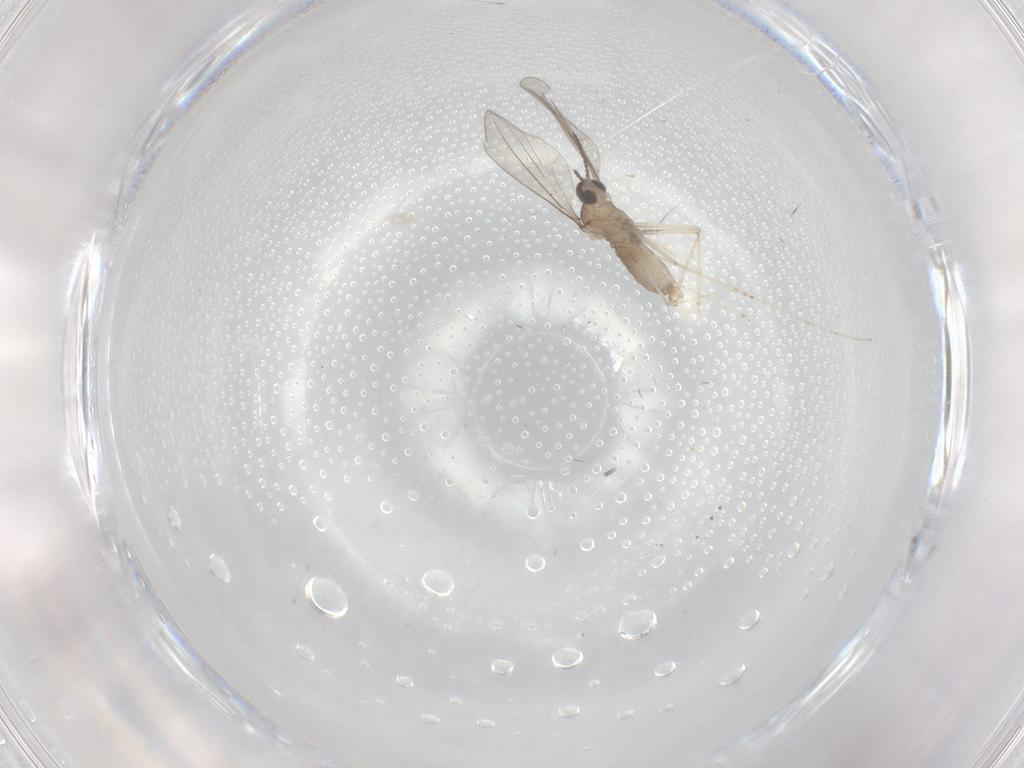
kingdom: Animalia
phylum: Arthropoda
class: Insecta
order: Diptera
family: Cecidomyiidae
